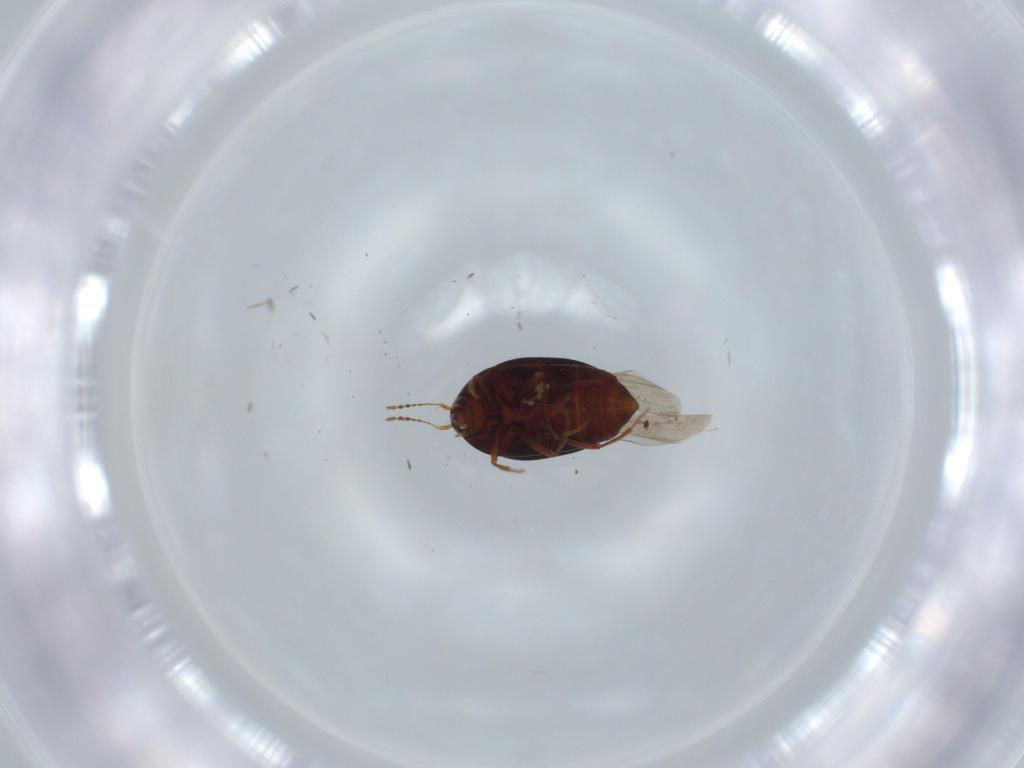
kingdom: Animalia
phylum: Arthropoda
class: Insecta
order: Coleoptera
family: Staphylinidae
